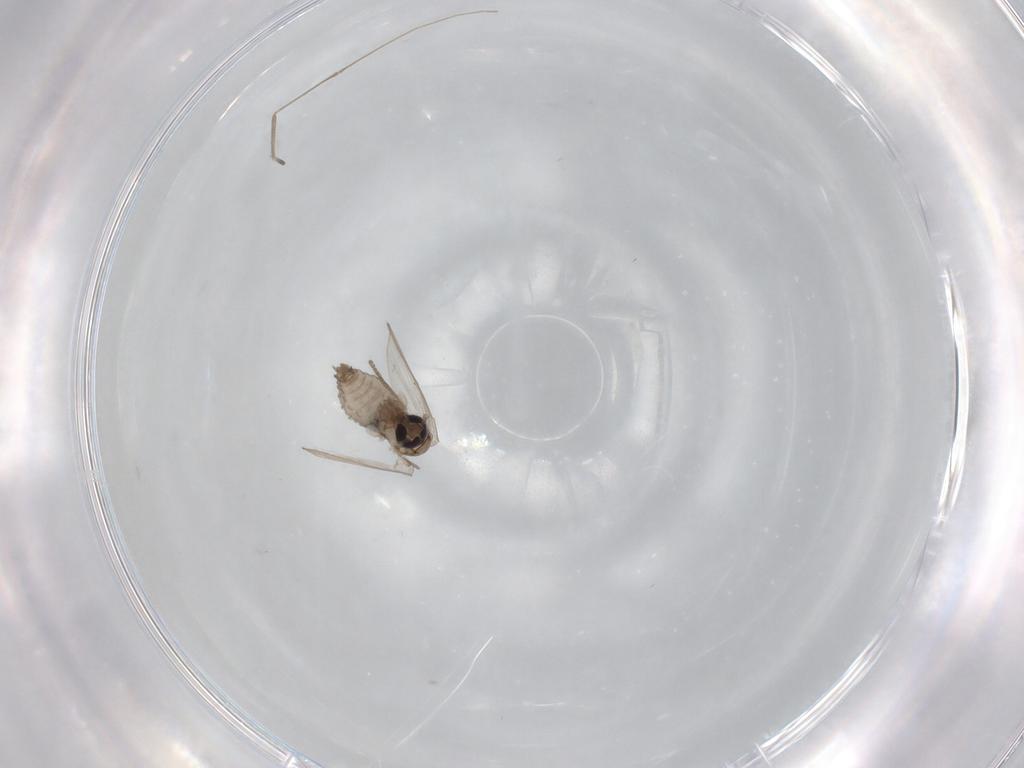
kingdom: Animalia
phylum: Arthropoda
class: Insecta
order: Diptera
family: Psychodidae
